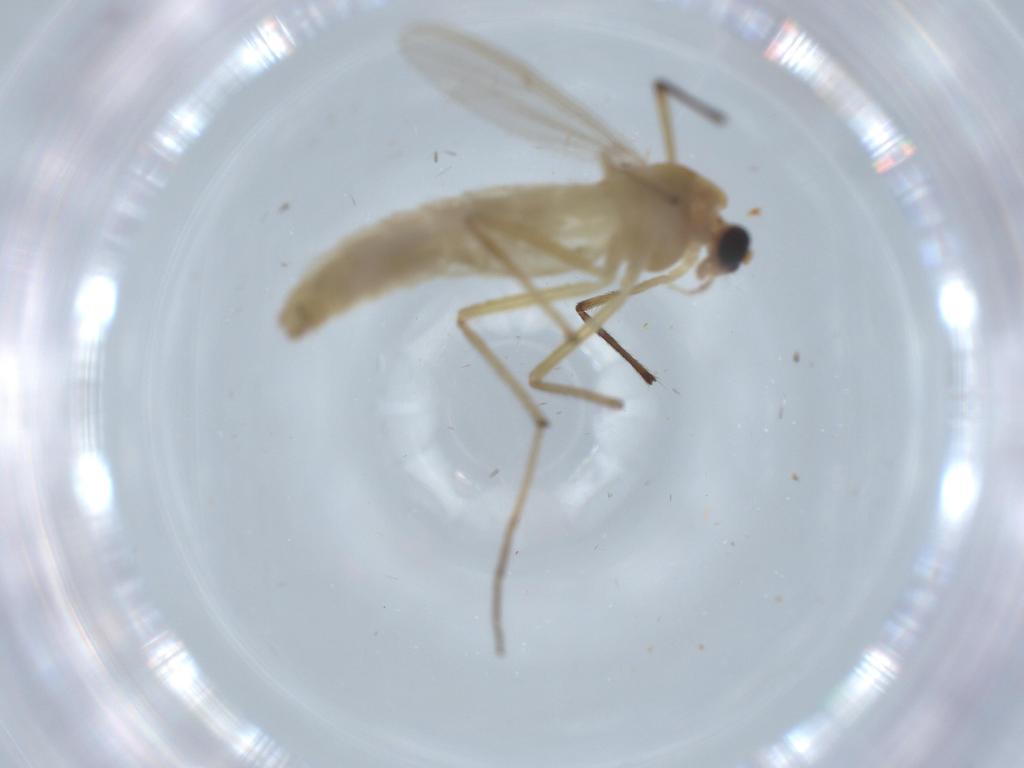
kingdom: Animalia
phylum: Arthropoda
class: Insecta
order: Diptera
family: Chironomidae
